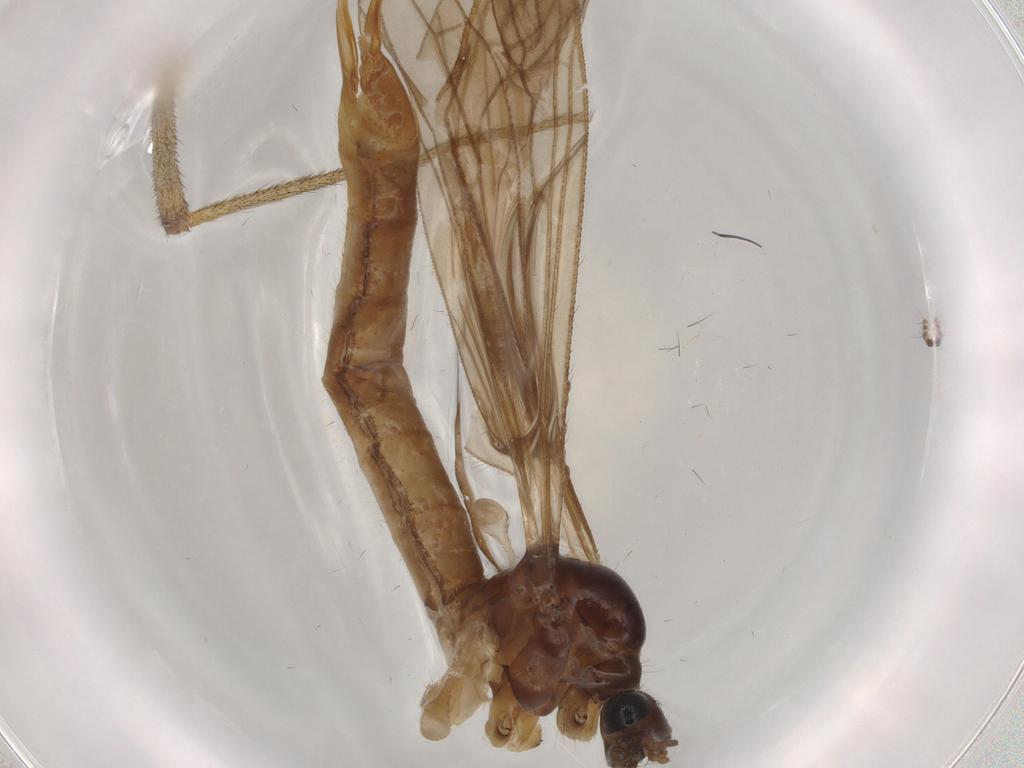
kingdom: Animalia
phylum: Arthropoda
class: Insecta
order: Diptera
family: Limoniidae
